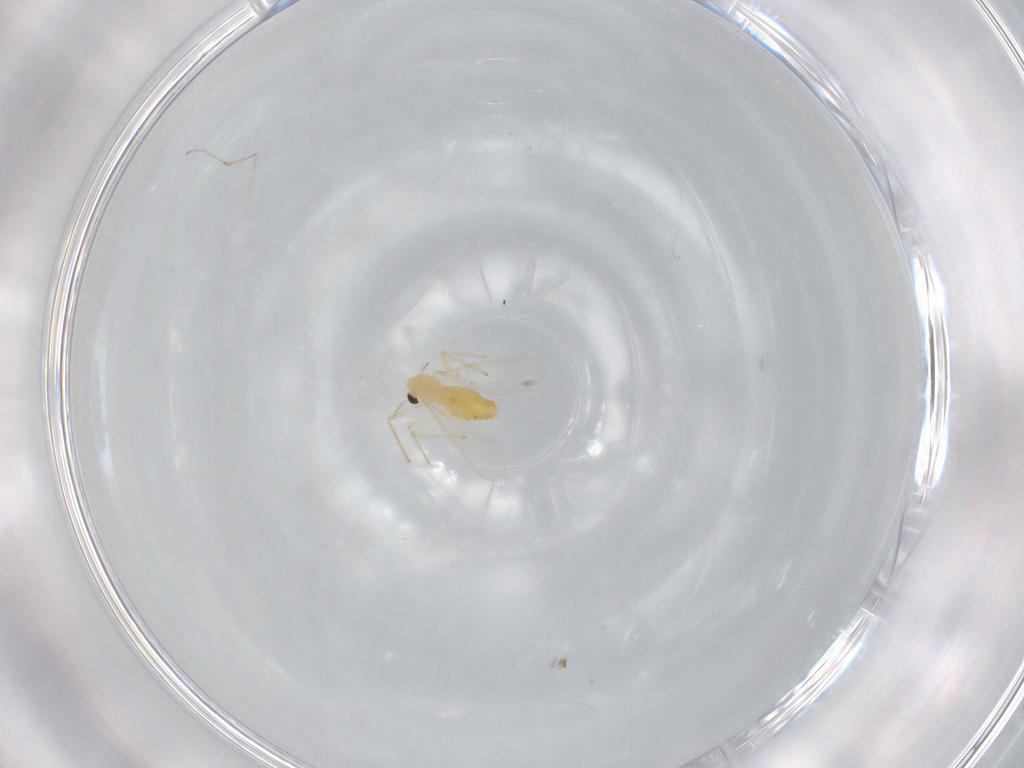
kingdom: Animalia
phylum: Arthropoda
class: Insecta
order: Diptera
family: Chironomidae
